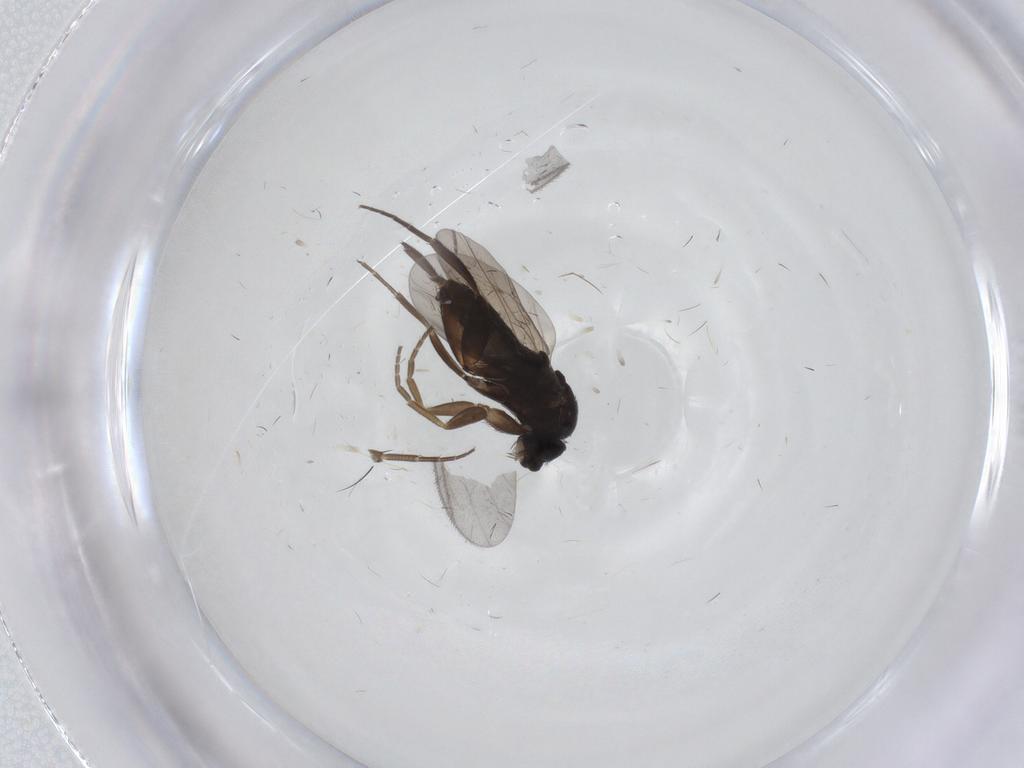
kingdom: Animalia
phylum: Arthropoda
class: Insecta
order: Diptera
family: Phoridae
